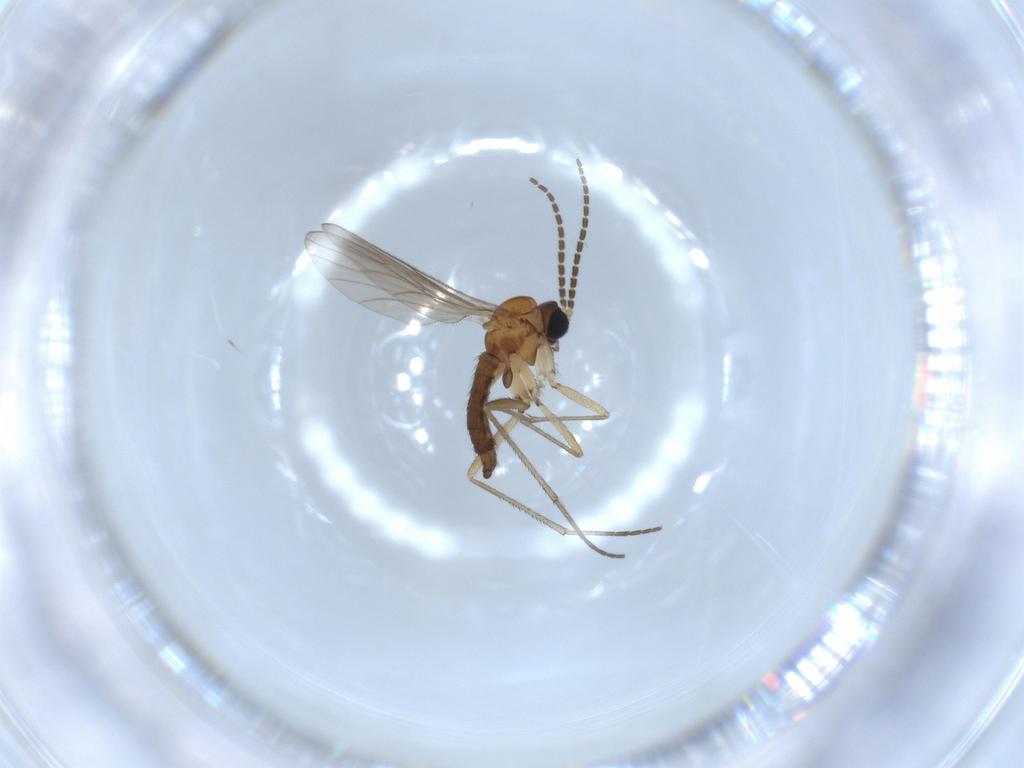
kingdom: Animalia
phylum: Arthropoda
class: Insecta
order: Diptera
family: Sciaridae
